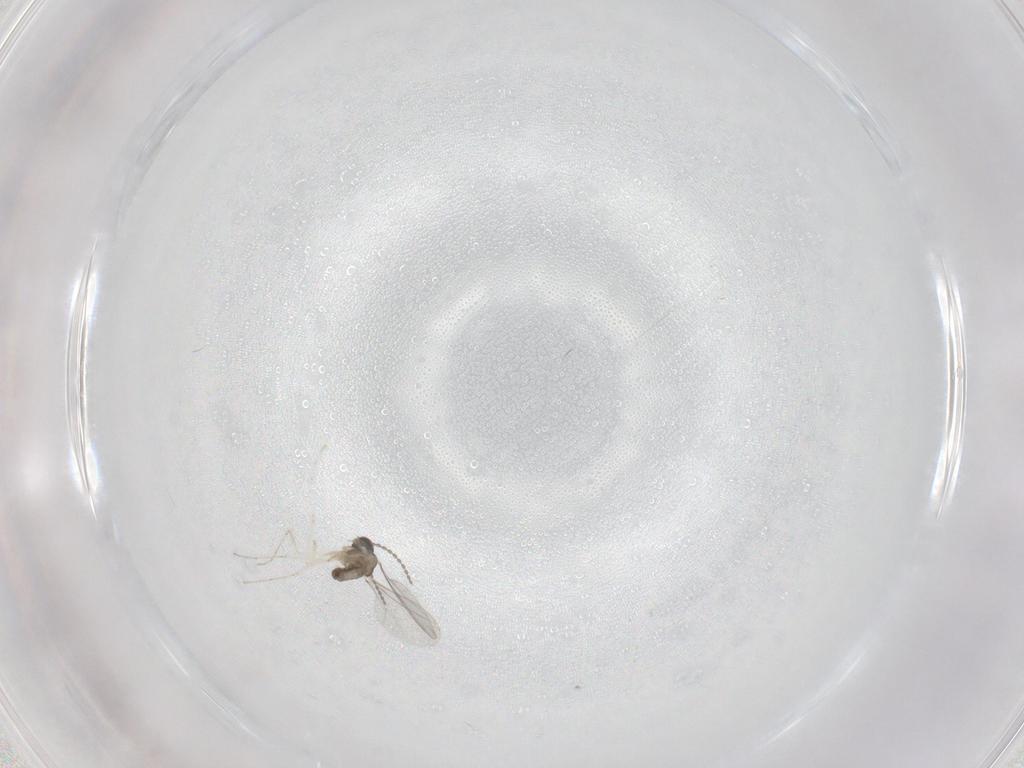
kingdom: Animalia
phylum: Arthropoda
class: Insecta
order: Diptera
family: Cecidomyiidae
